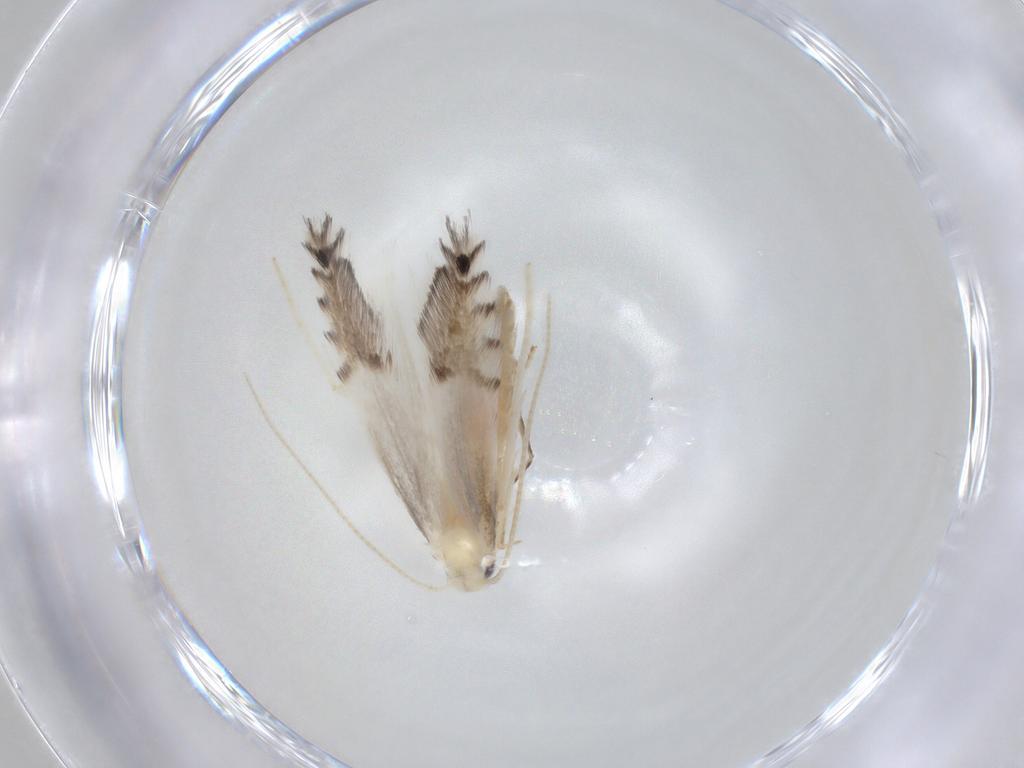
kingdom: Animalia
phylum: Arthropoda
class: Insecta
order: Lepidoptera
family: Gracillariidae
